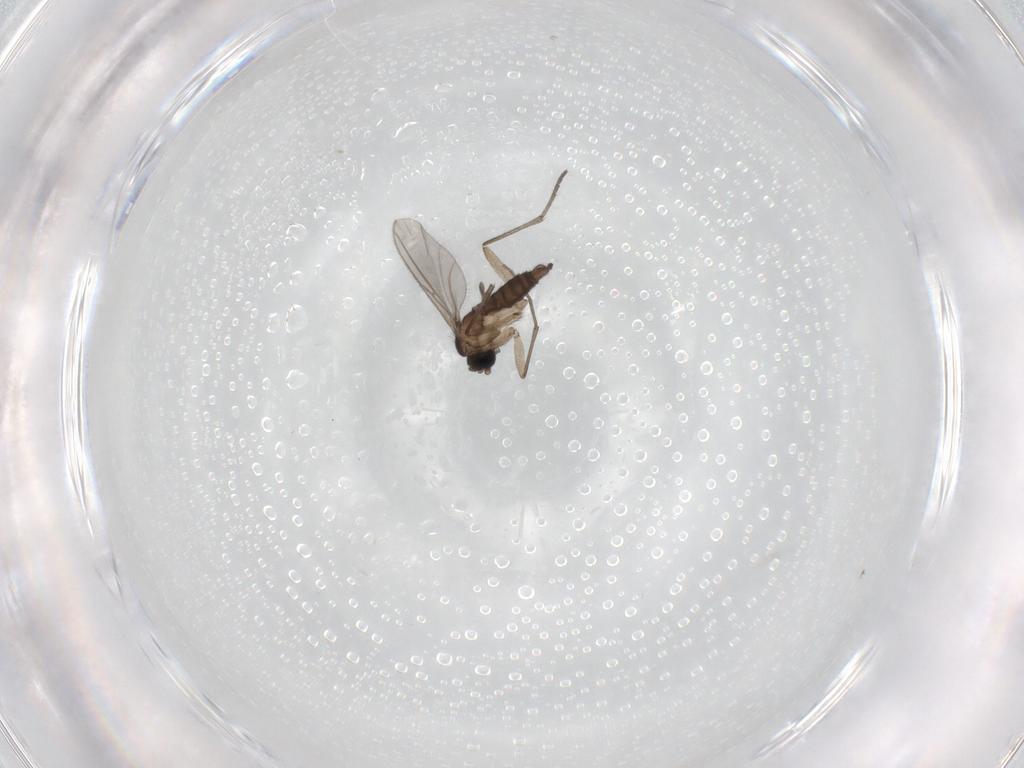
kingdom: Animalia
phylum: Arthropoda
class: Insecta
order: Diptera
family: Sciaridae
